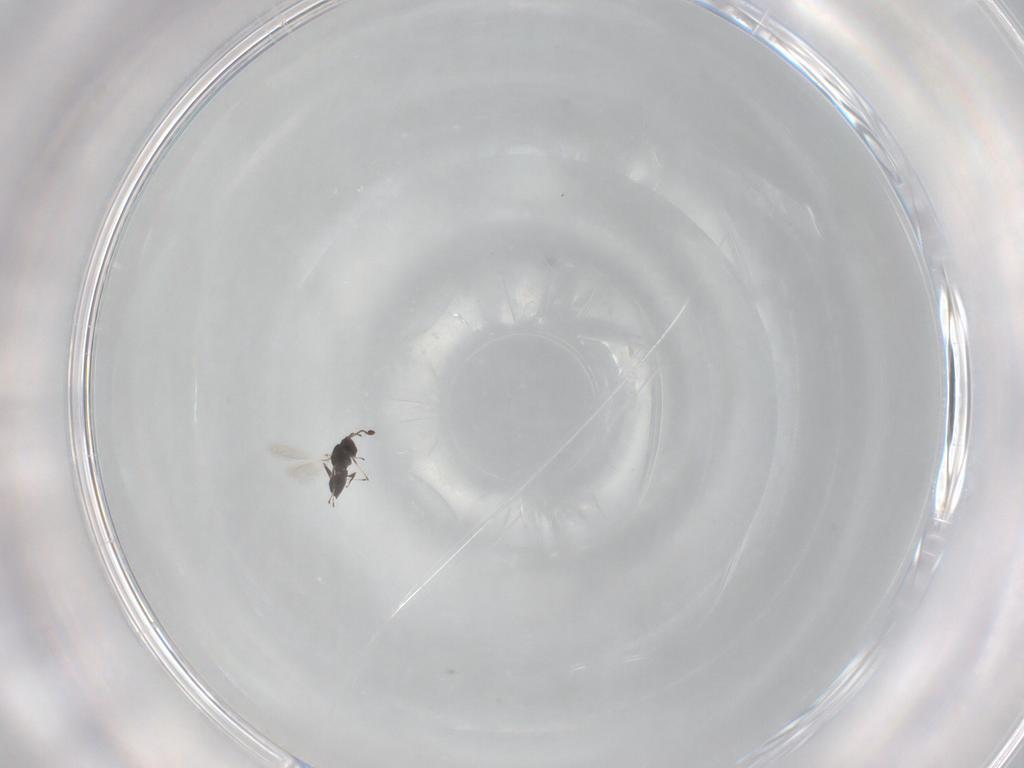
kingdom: Animalia
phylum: Arthropoda
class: Insecta
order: Hymenoptera
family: Mymaridae
